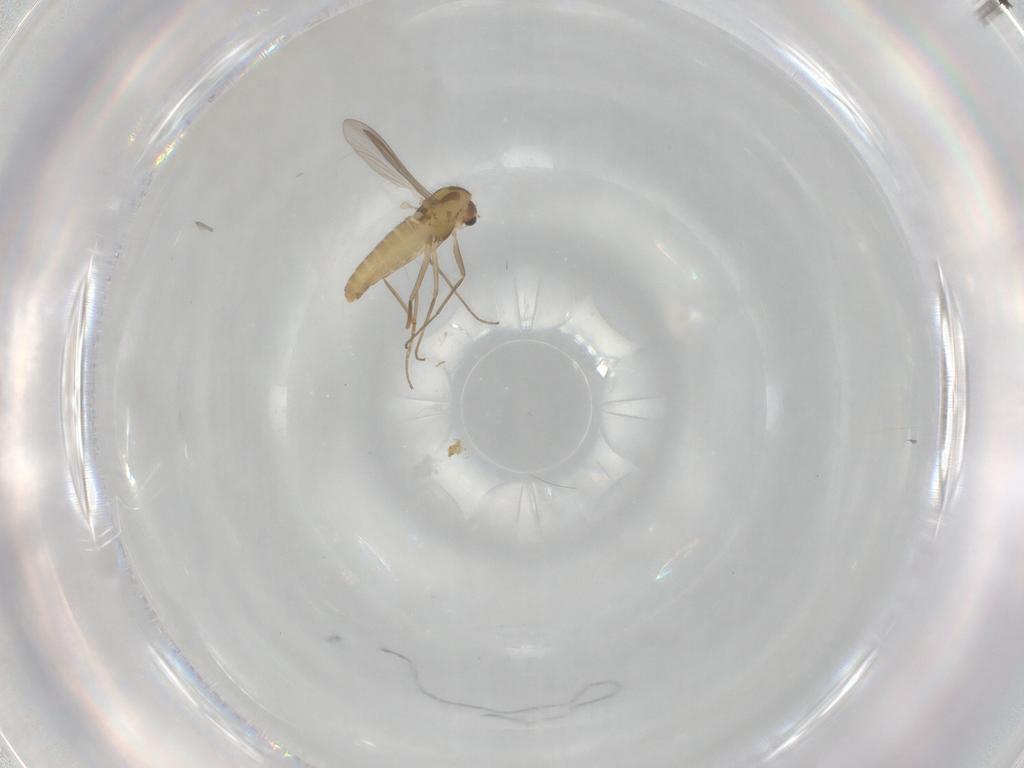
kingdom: Animalia
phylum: Arthropoda
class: Insecta
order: Diptera
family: Chironomidae
